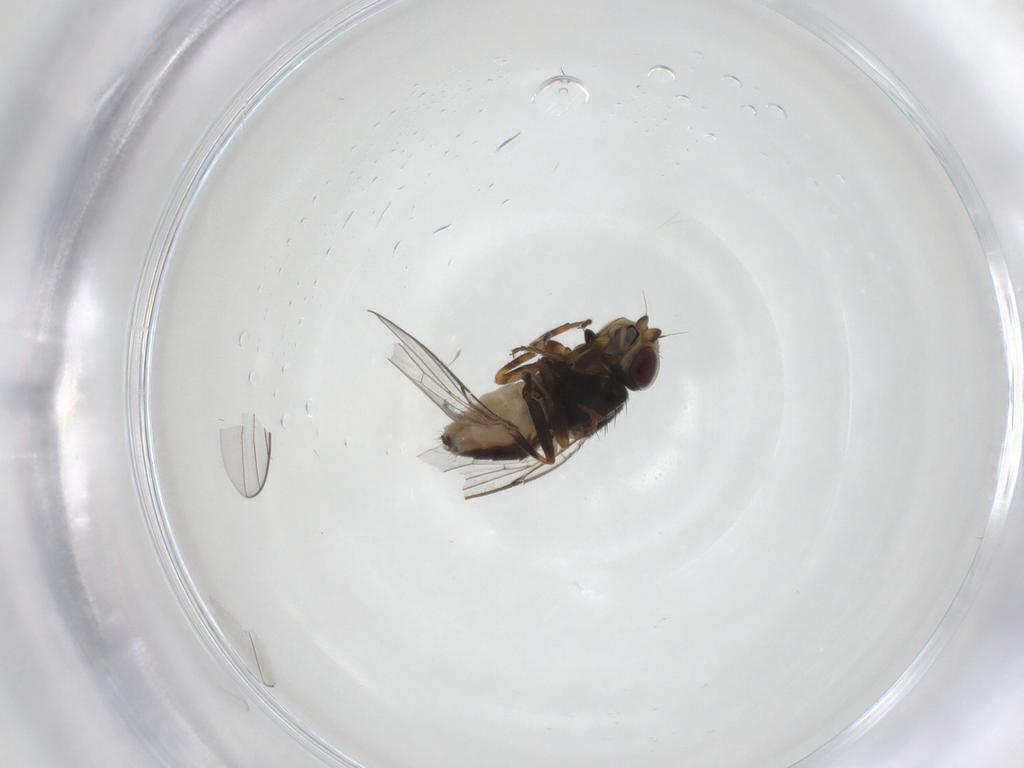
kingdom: Animalia
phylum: Arthropoda
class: Insecta
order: Diptera
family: Chloropidae
